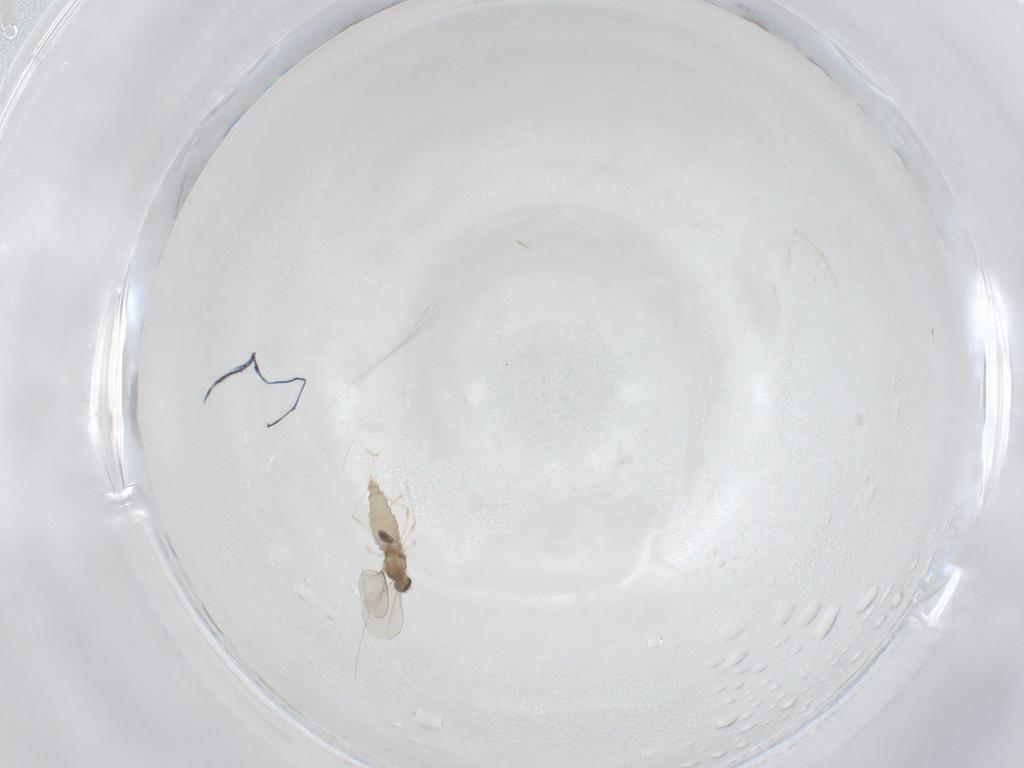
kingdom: Animalia
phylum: Arthropoda
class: Insecta
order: Diptera
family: Cecidomyiidae
